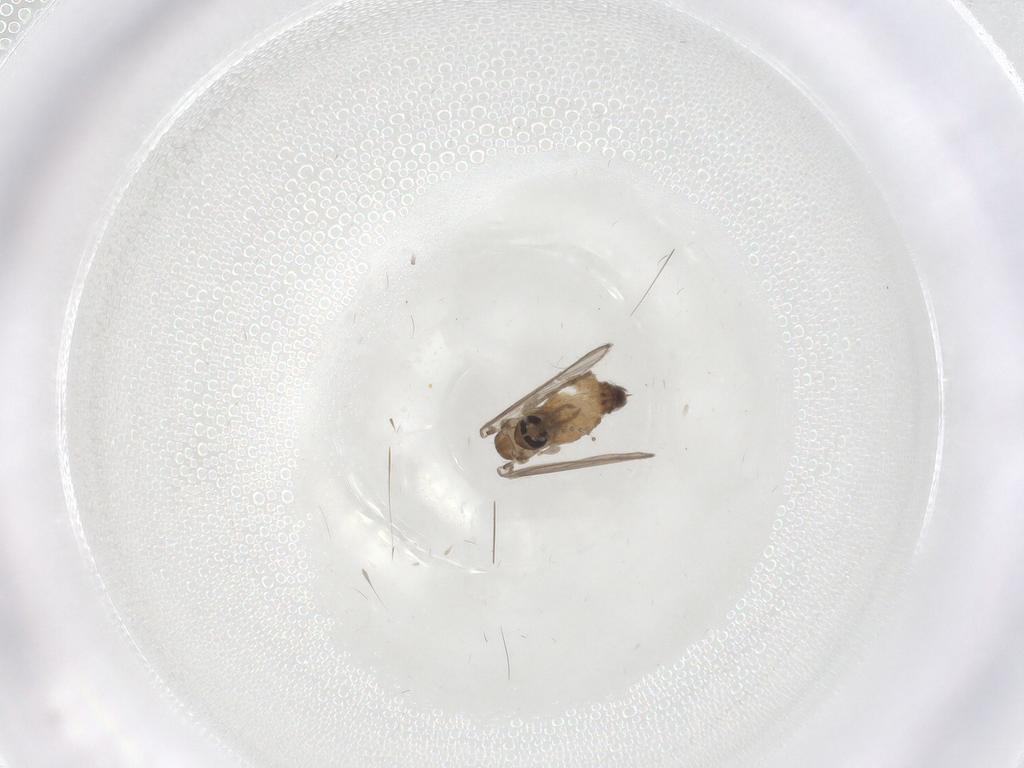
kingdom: Animalia
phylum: Arthropoda
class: Insecta
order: Diptera
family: Psychodidae
